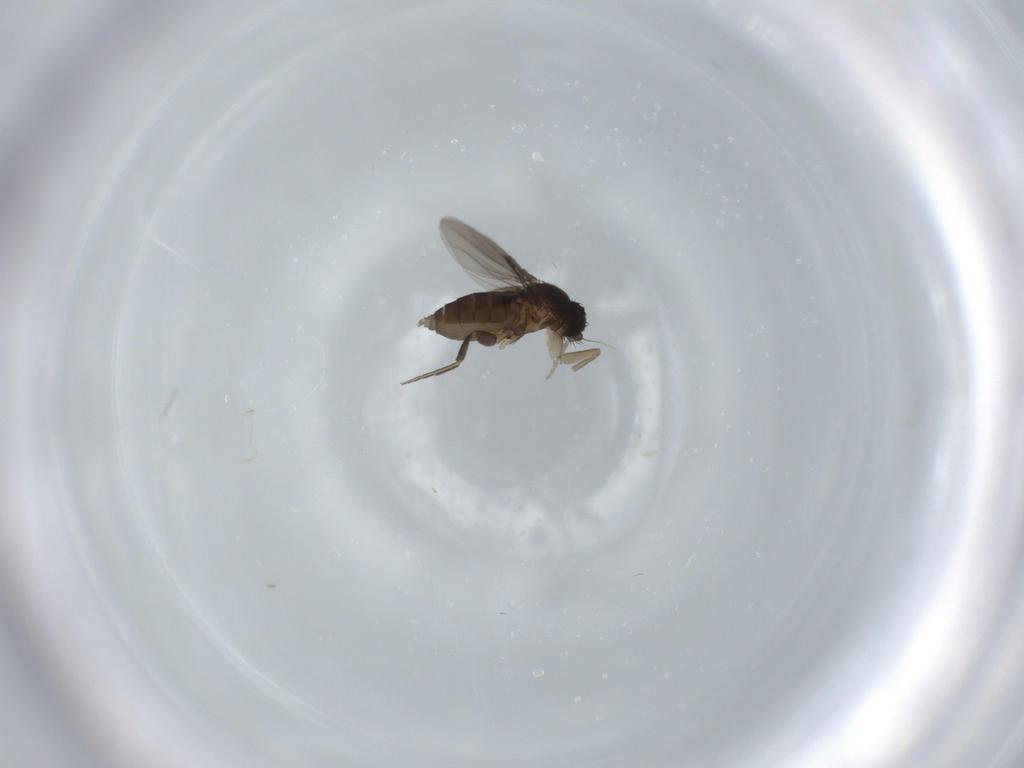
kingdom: Animalia
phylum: Arthropoda
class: Insecta
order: Diptera
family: Phoridae
